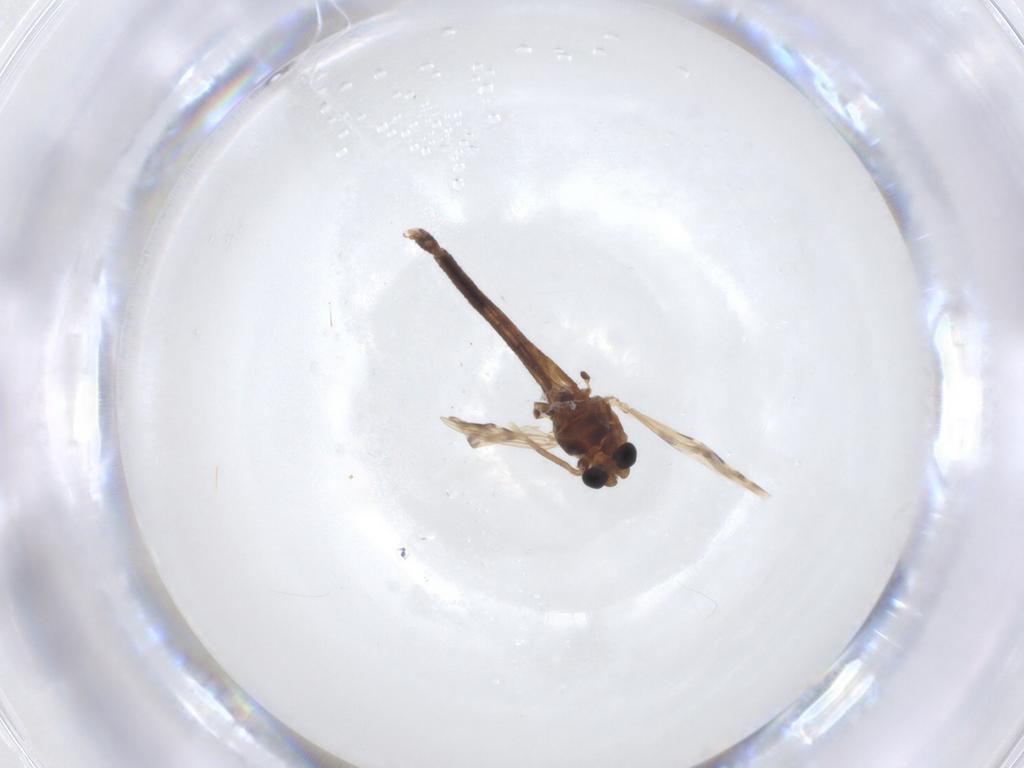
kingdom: Animalia
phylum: Arthropoda
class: Insecta
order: Diptera
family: Chironomidae
